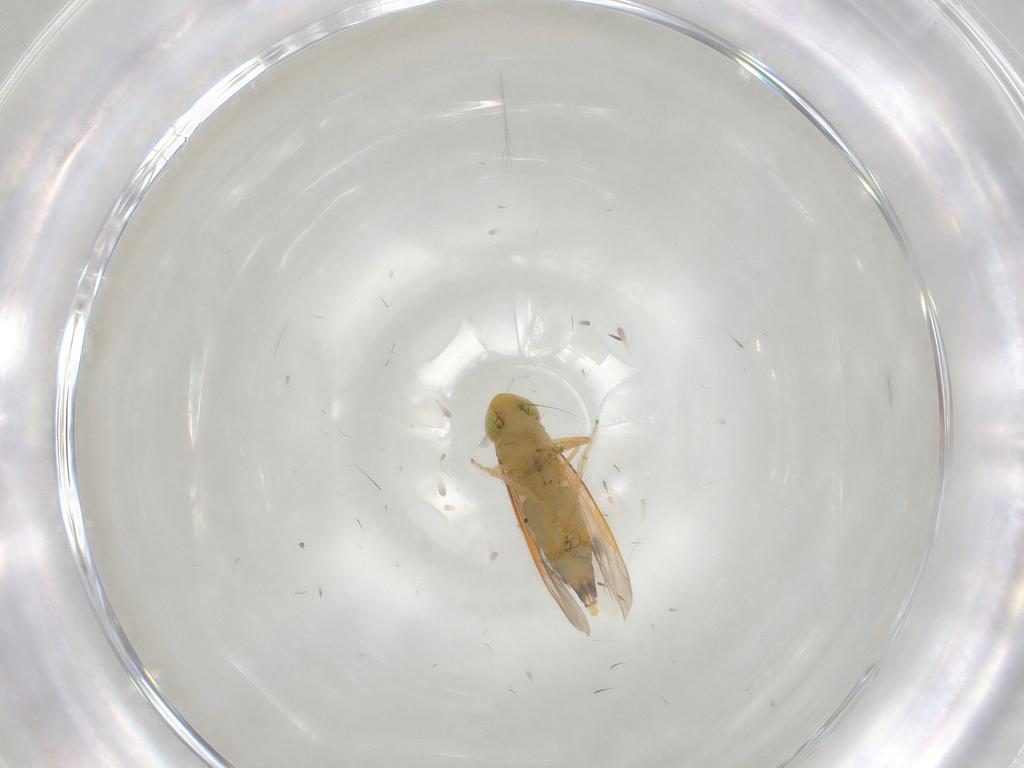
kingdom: Animalia
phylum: Arthropoda
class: Insecta
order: Hemiptera
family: Cicadellidae
